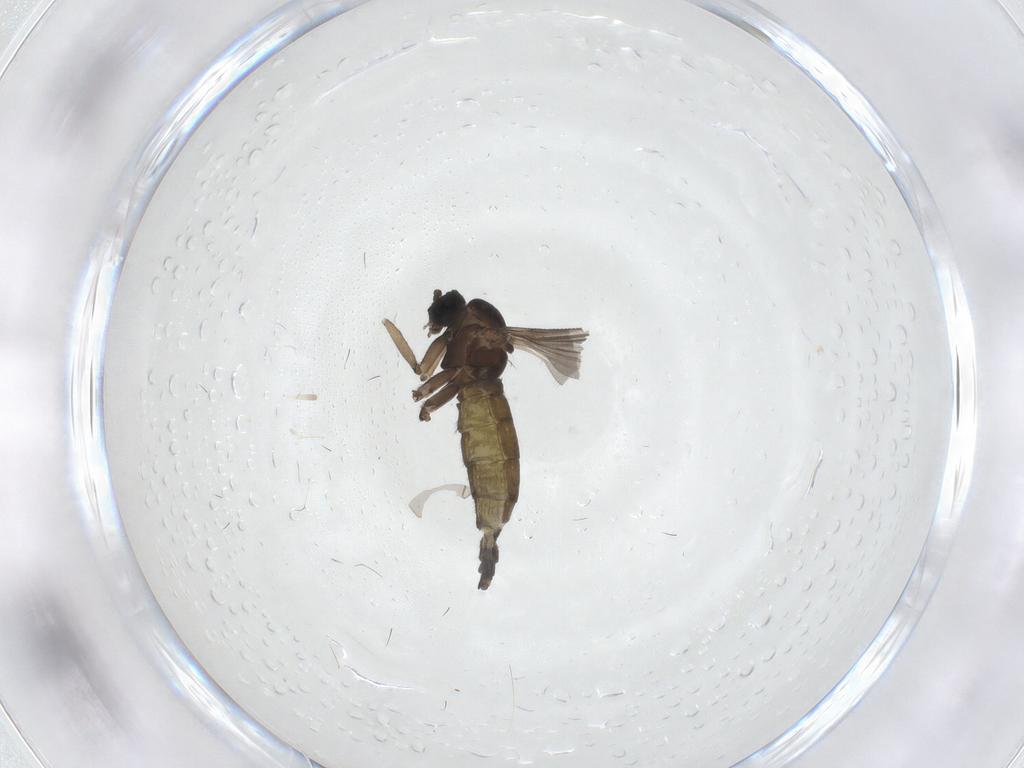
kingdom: Animalia
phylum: Arthropoda
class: Insecta
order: Diptera
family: Sciaridae
